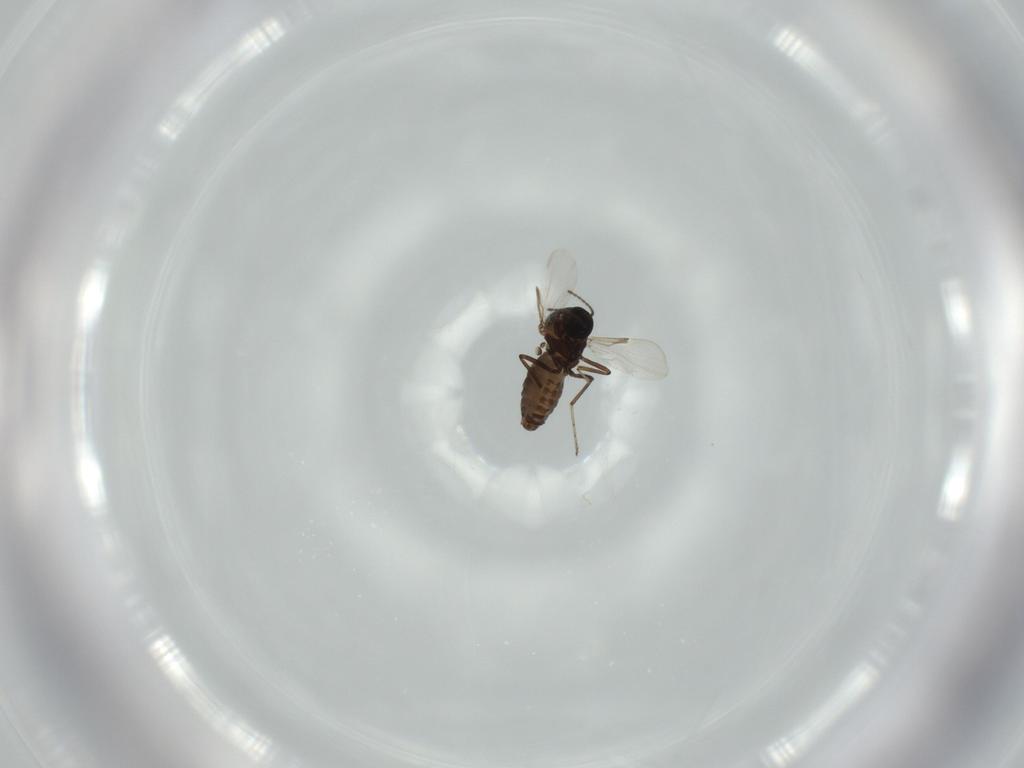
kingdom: Animalia
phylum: Arthropoda
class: Insecta
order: Diptera
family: Ceratopogonidae
